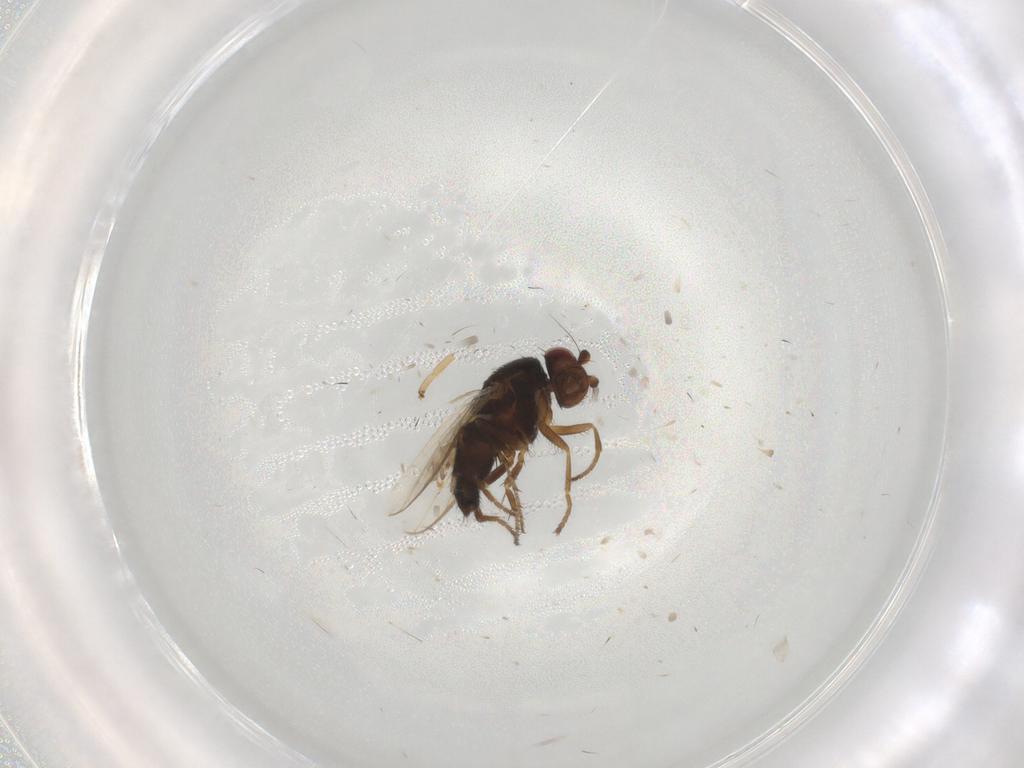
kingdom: Animalia
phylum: Arthropoda
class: Insecta
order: Diptera
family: Sphaeroceridae
